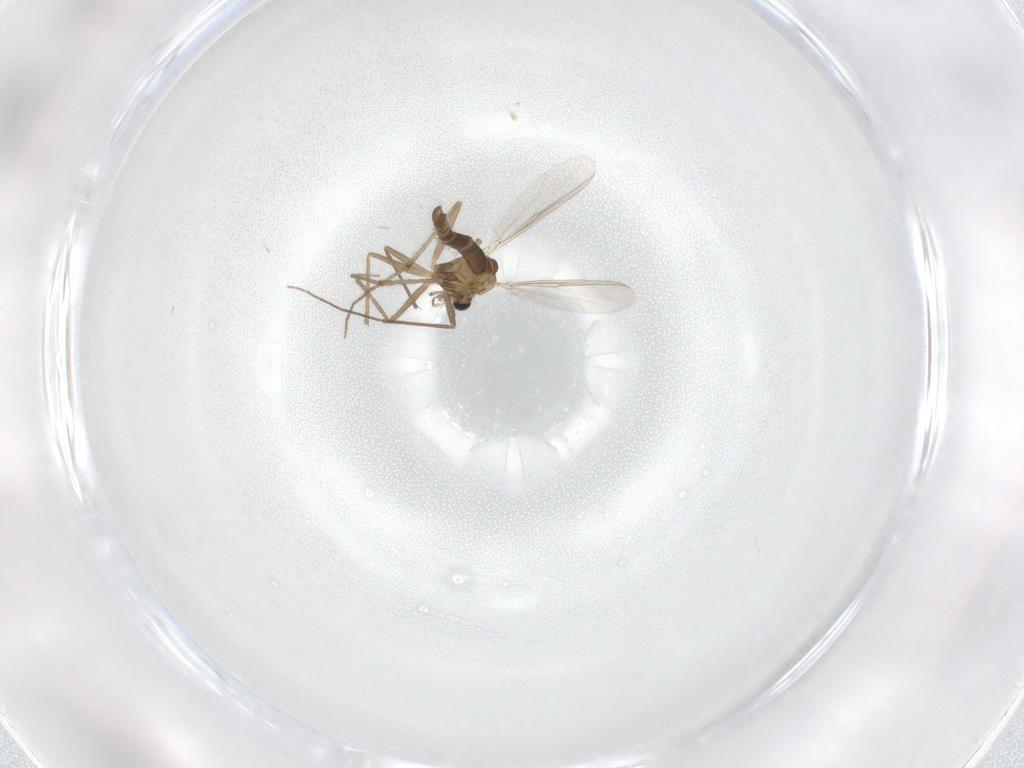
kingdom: Animalia
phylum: Arthropoda
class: Insecta
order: Diptera
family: Chironomidae
